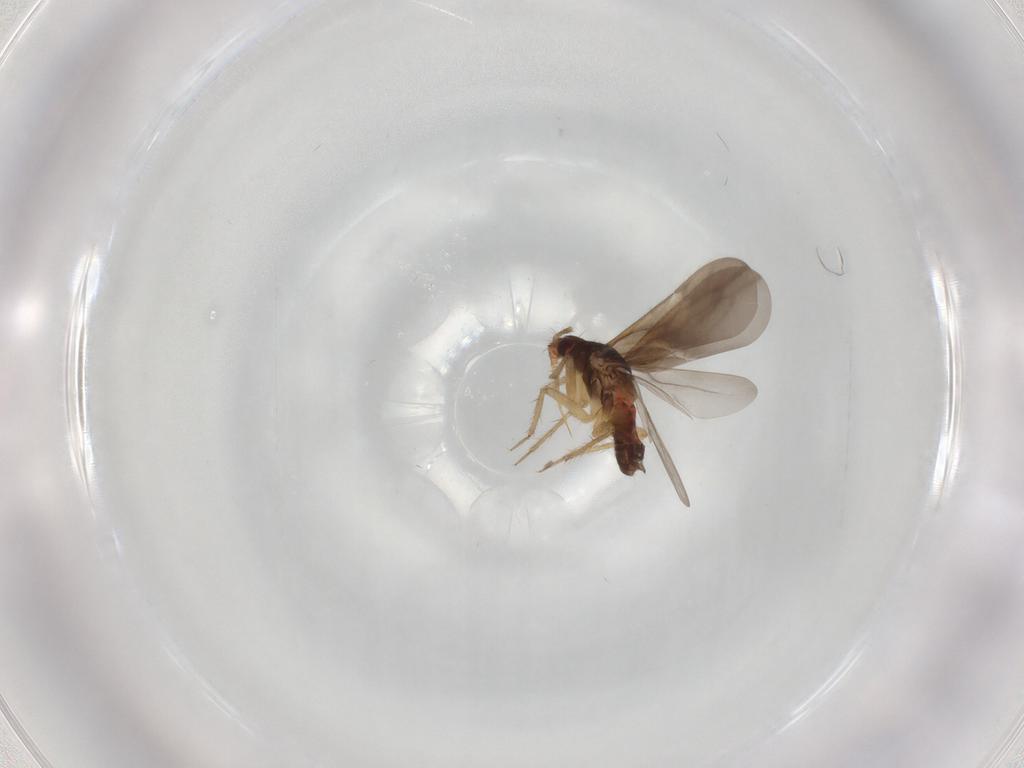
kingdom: Animalia
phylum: Arthropoda
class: Insecta
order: Hemiptera
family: Ceratocombidae
